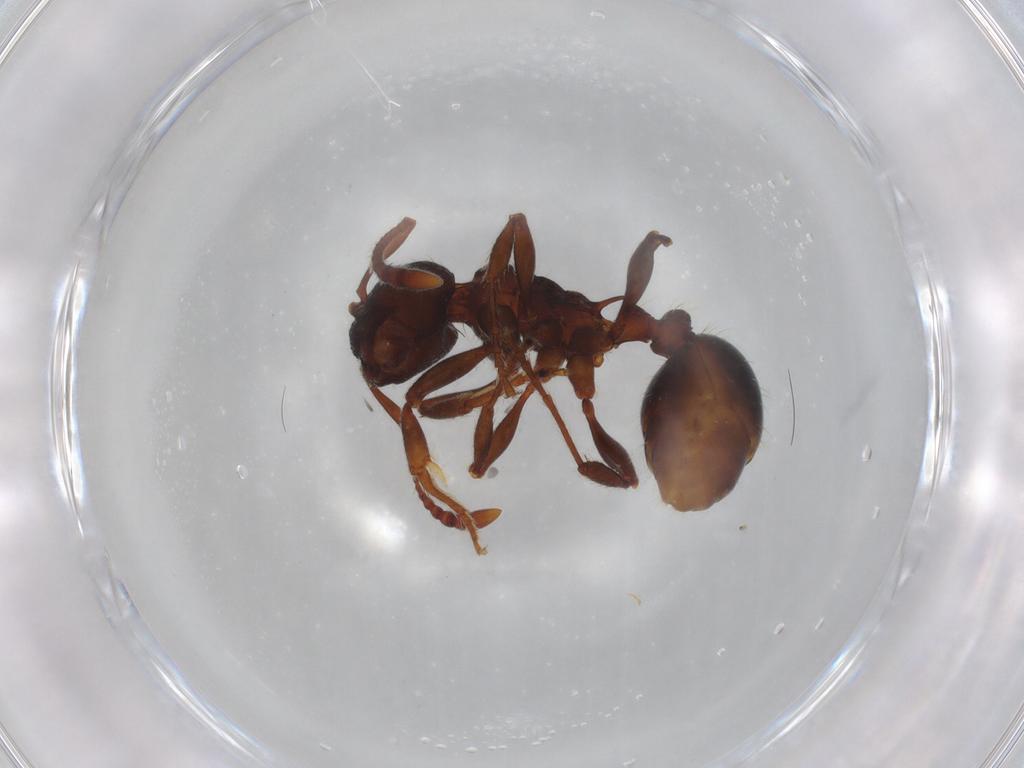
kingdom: Animalia
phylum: Arthropoda
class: Insecta
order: Hymenoptera
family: Formicidae
